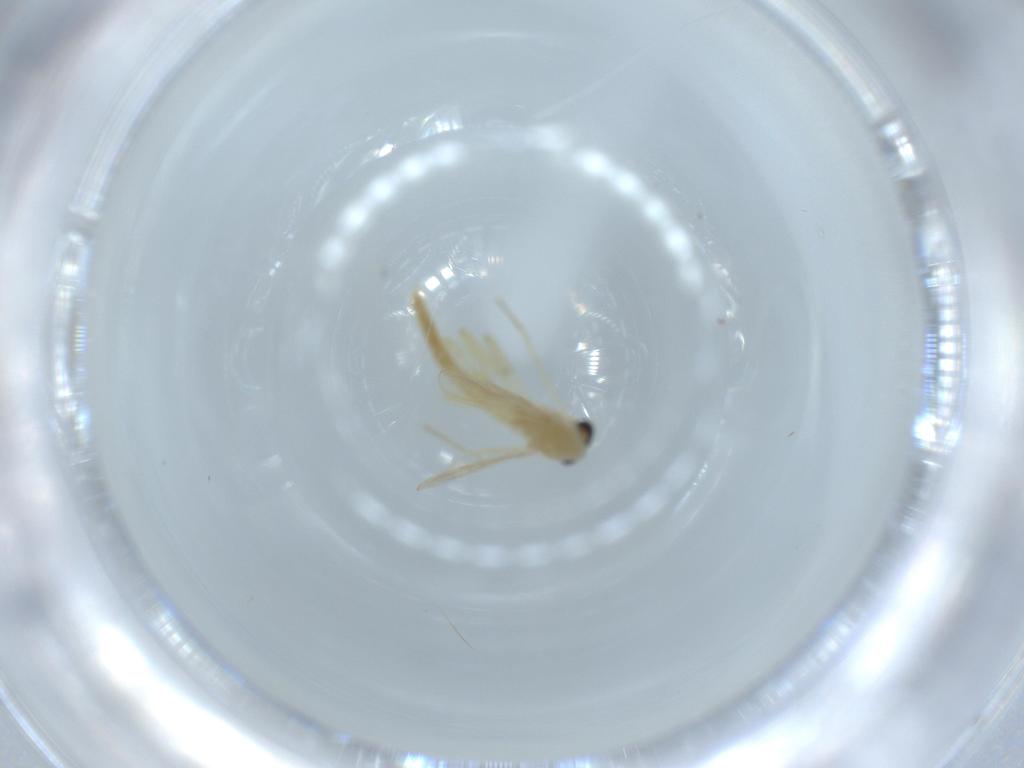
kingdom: Animalia
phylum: Arthropoda
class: Insecta
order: Diptera
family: Chironomidae
